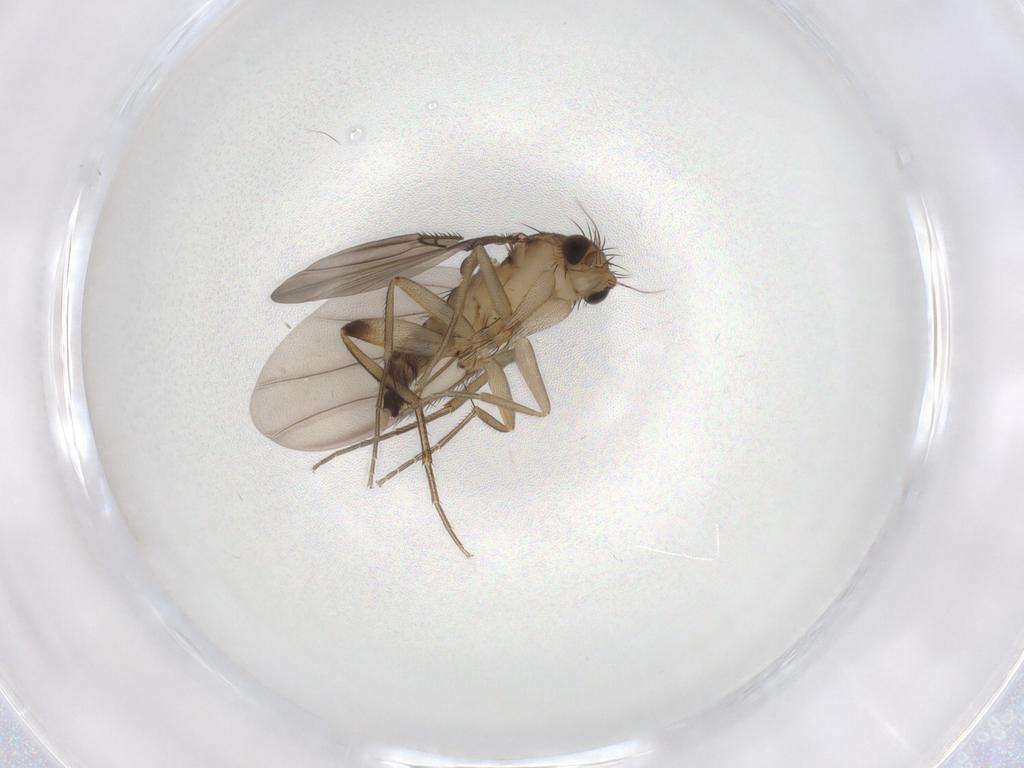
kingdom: Animalia
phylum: Arthropoda
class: Insecta
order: Diptera
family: Phoridae
